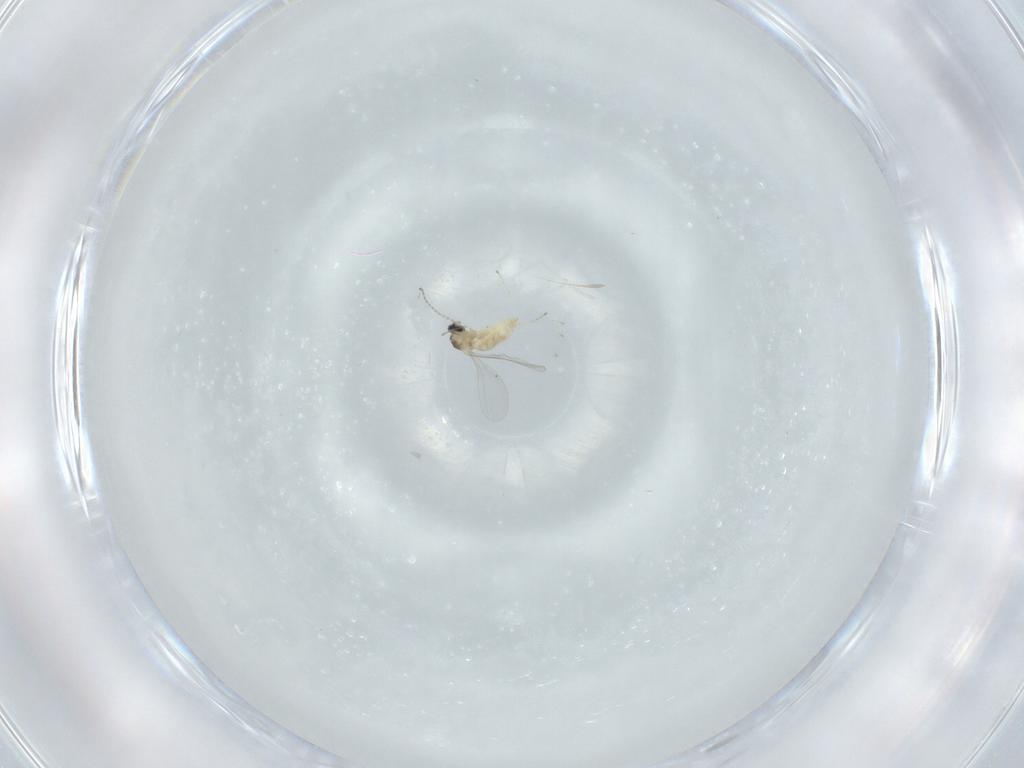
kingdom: Animalia
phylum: Arthropoda
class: Insecta
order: Diptera
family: Cecidomyiidae
